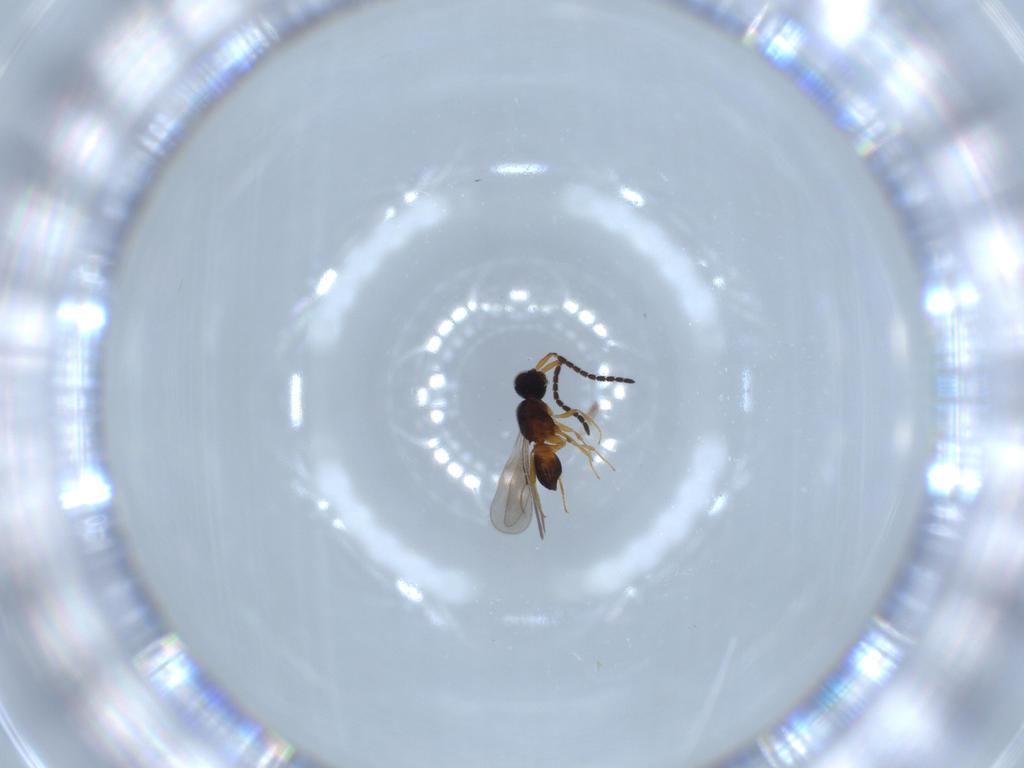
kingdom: Animalia
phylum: Arthropoda
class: Insecta
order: Hymenoptera
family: Ceraphronidae
